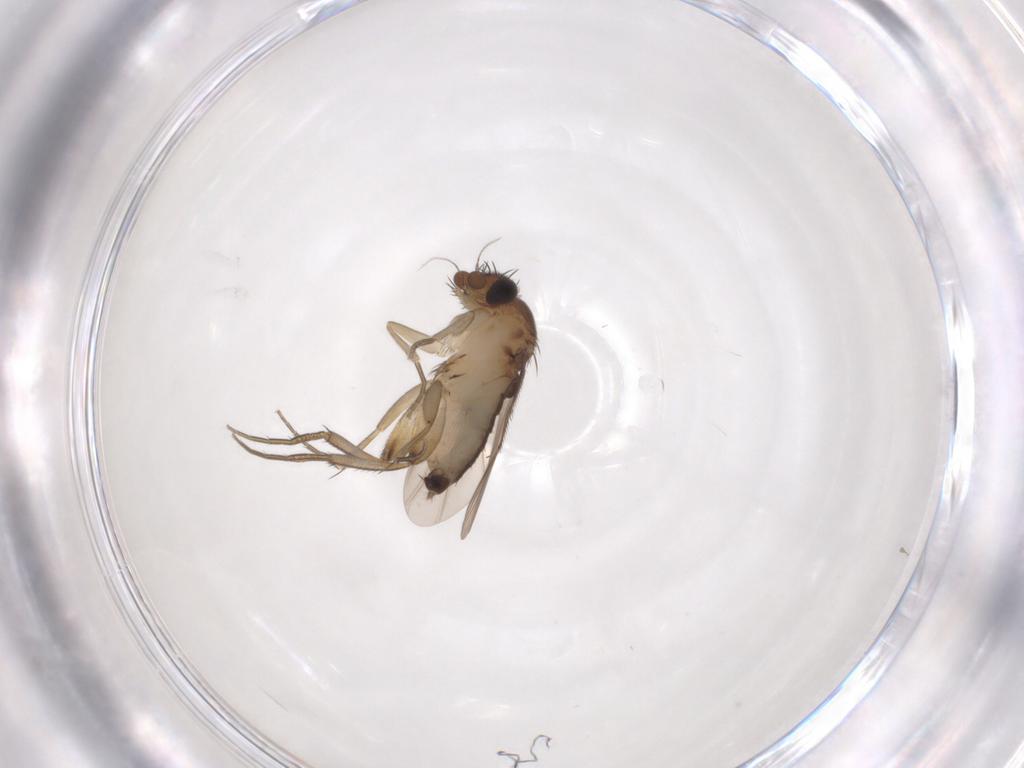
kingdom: Animalia
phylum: Arthropoda
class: Insecta
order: Diptera
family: Phoridae
